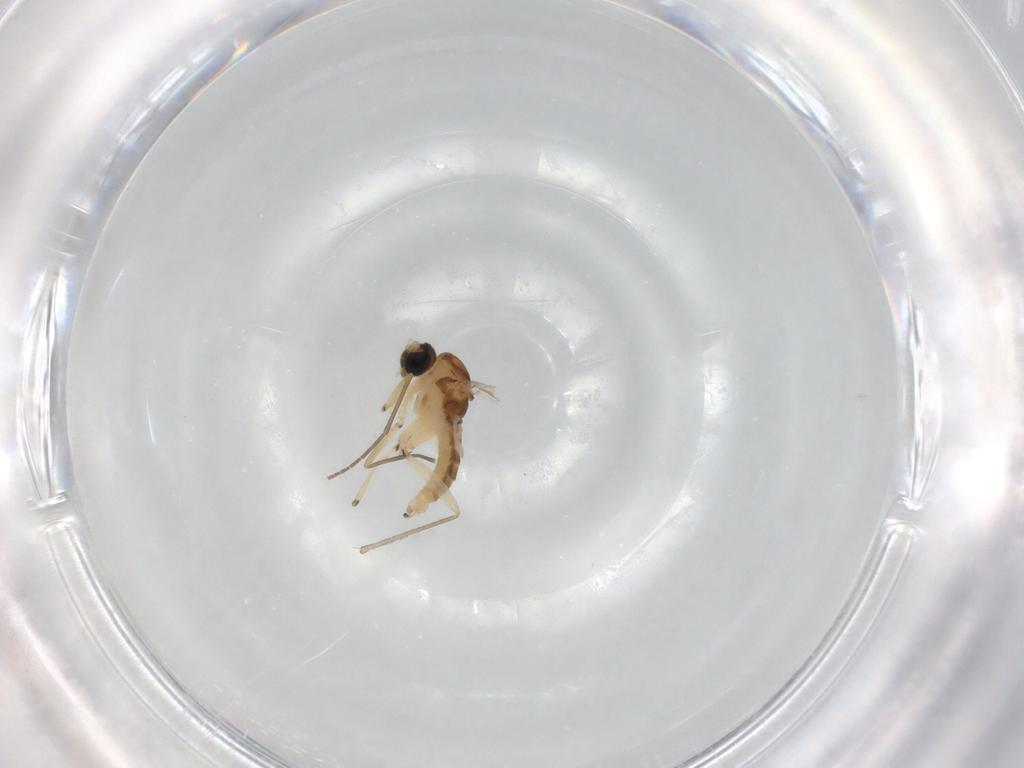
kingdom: Animalia
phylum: Arthropoda
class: Insecta
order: Diptera
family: Sciaridae
